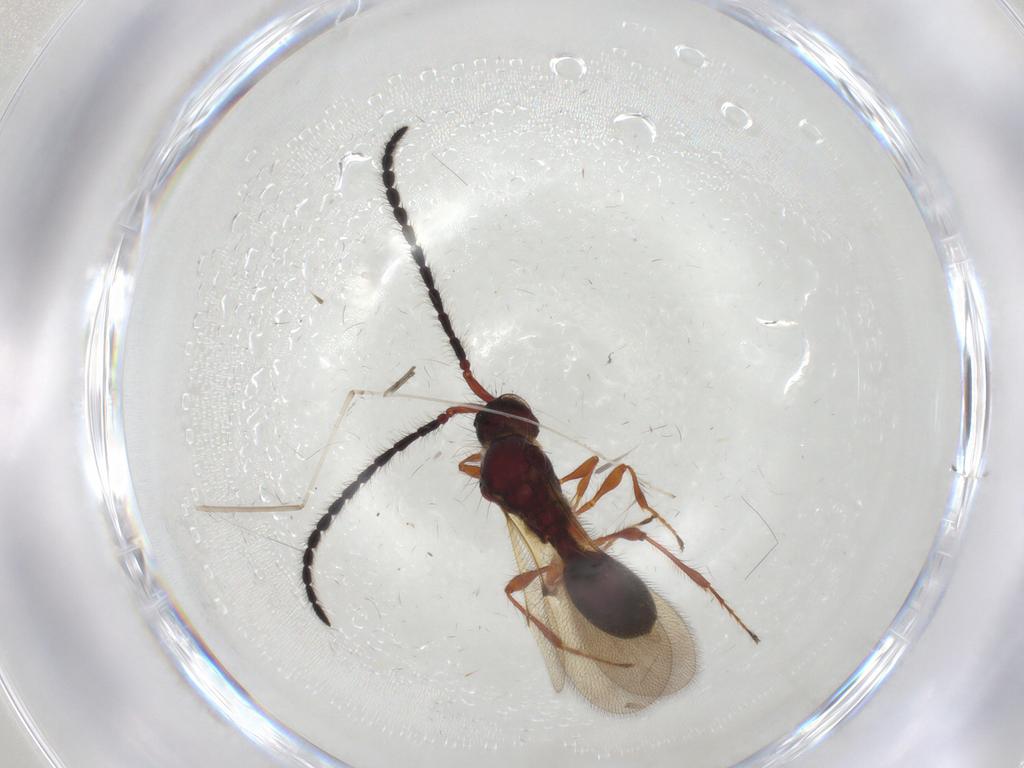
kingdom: Animalia
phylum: Arthropoda
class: Insecta
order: Hymenoptera
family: Diapriidae
